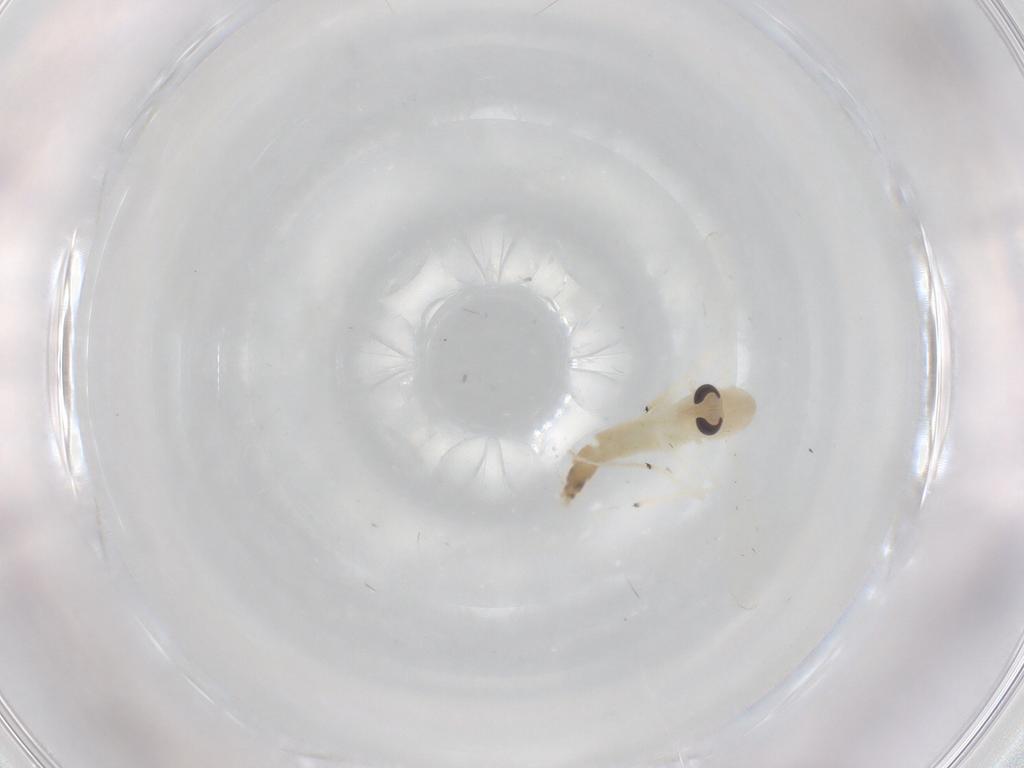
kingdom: Animalia
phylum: Arthropoda
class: Insecta
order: Diptera
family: Chironomidae
